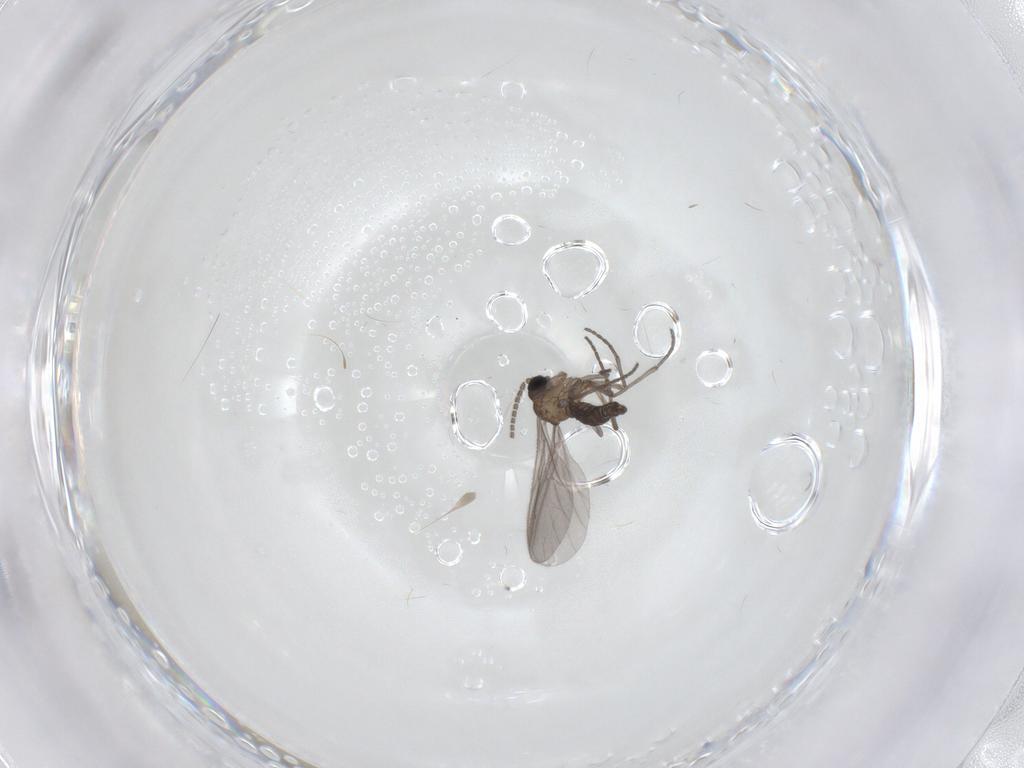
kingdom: Animalia
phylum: Arthropoda
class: Insecta
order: Diptera
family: Sciaridae
